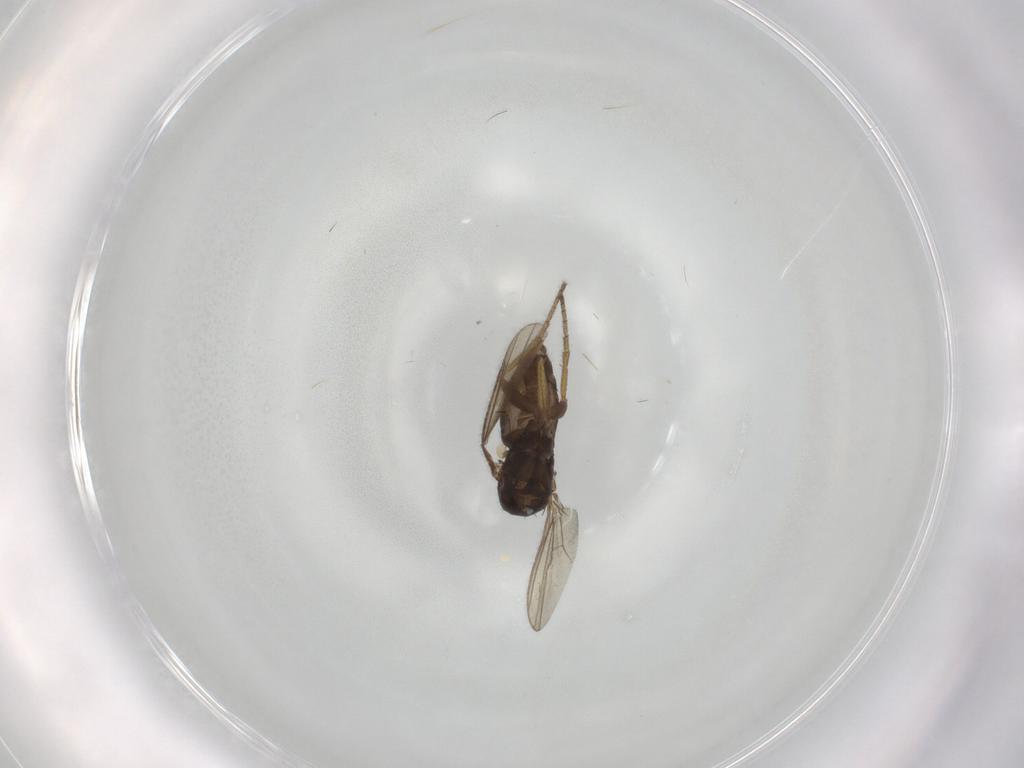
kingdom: Animalia
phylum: Arthropoda
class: Insecta
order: Diptera
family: Dolichopodidae
